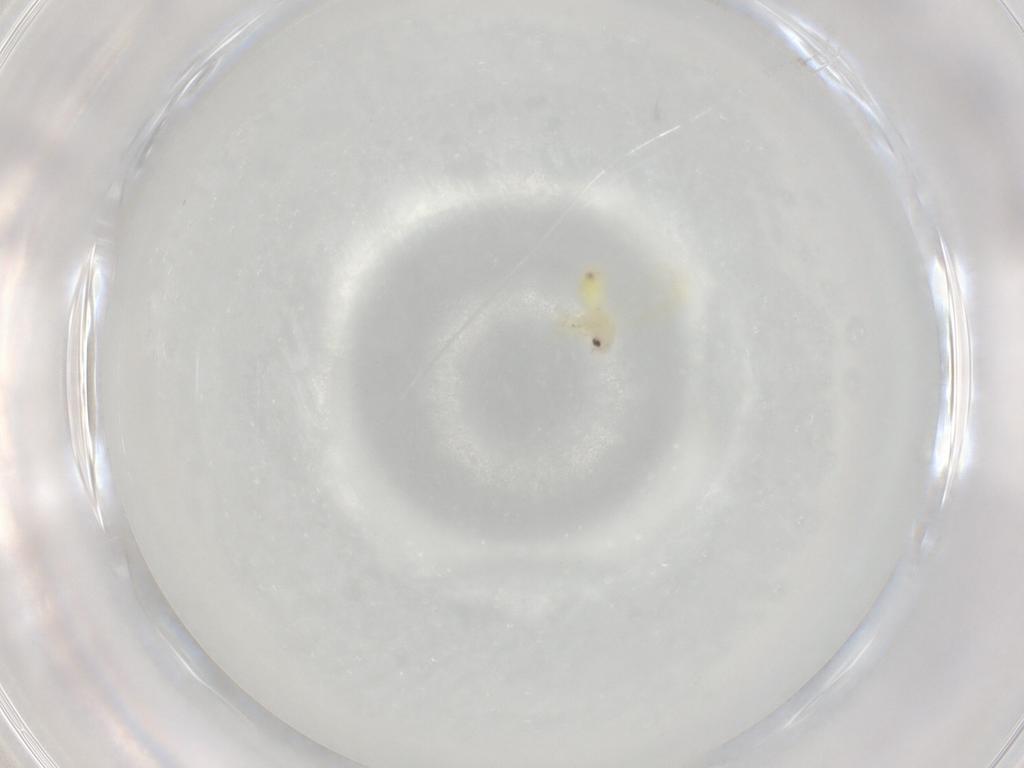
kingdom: Animalia
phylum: Arthropoda
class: Insecta
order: Hemiptera
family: Aleyrodidae
